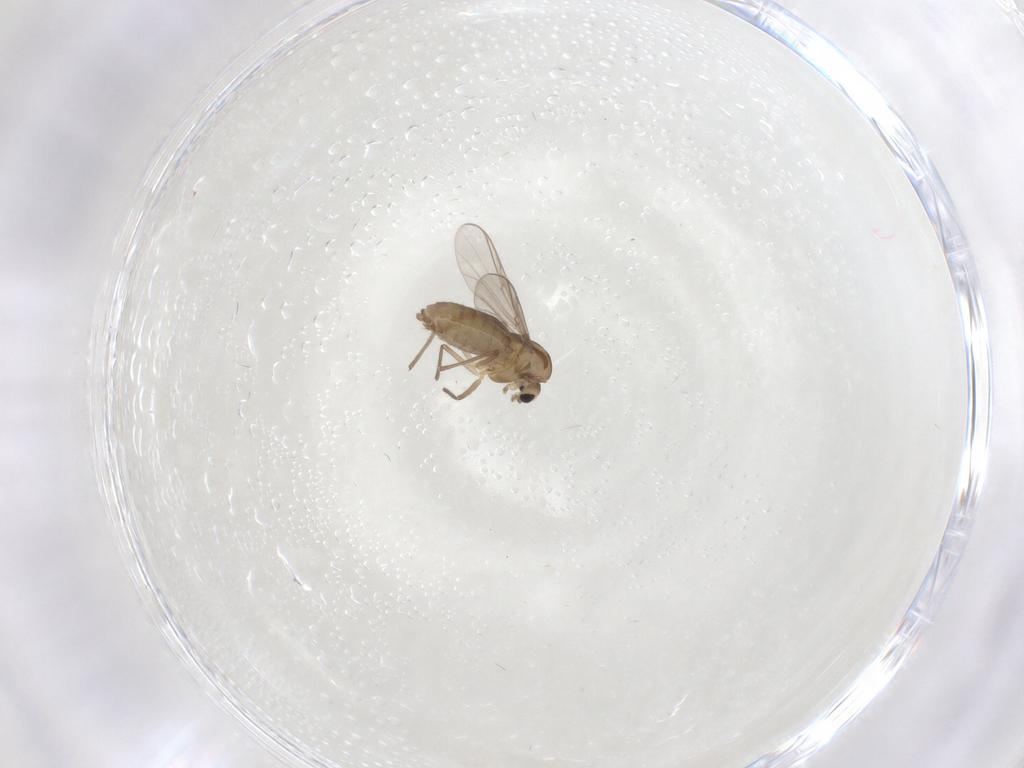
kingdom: Animalia
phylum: Arthropoda
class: Insecta
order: Diptera
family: Chironomidae
